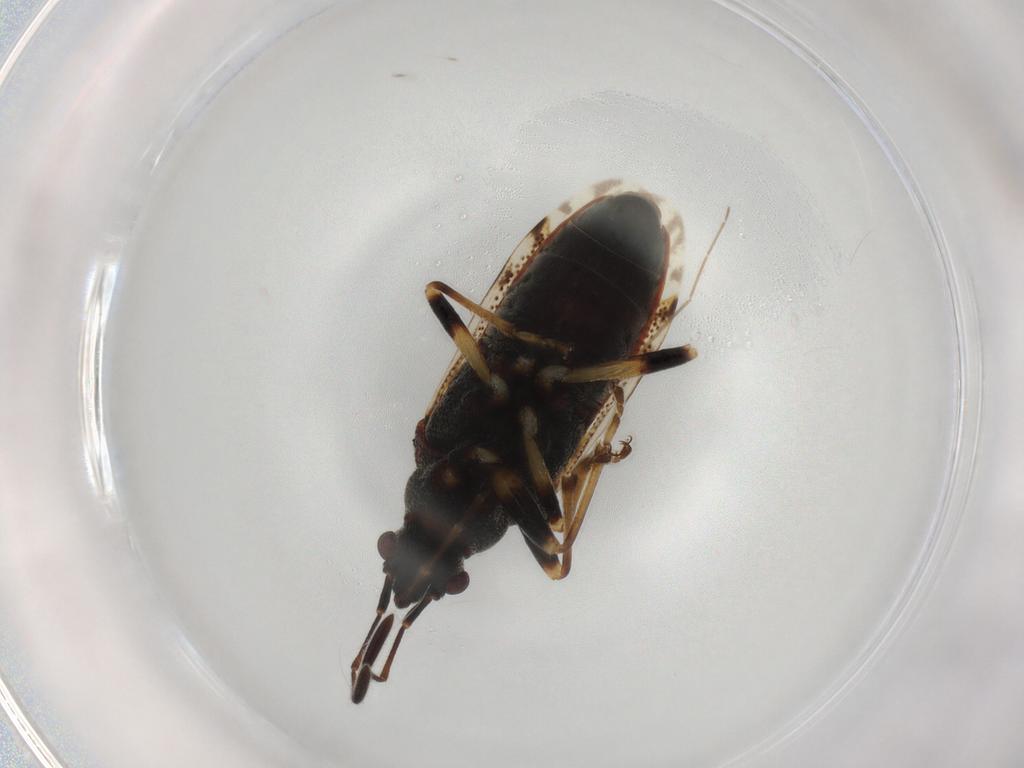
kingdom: Animalia
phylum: Arthropoda
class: Insecta
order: Hemiptera
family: Rhyparochromidae
